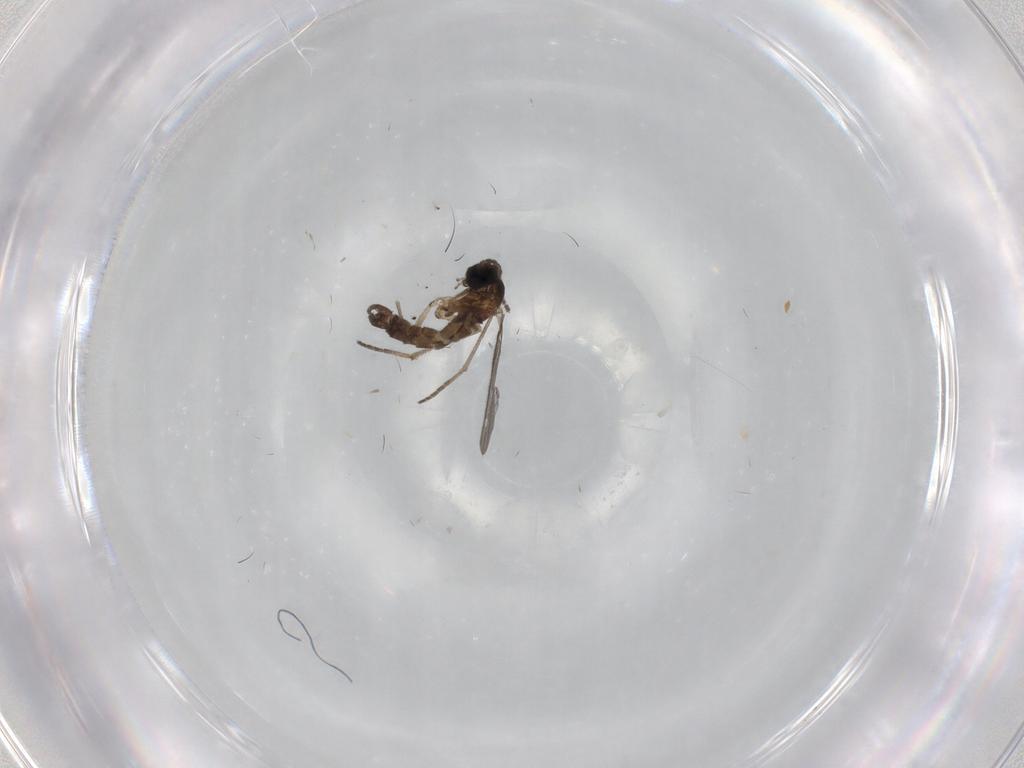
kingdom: Animalia
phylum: Arthropoda
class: Insecta
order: Diptera
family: Sciaridae
